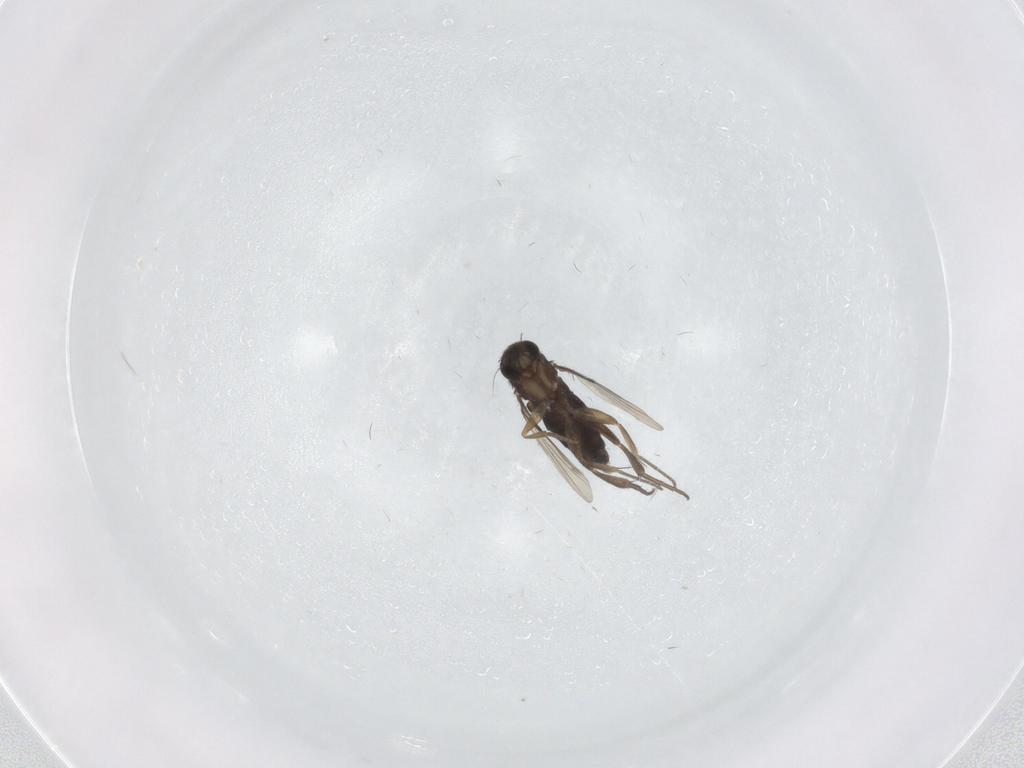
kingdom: Animalia
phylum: Arthropoda
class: Insecta
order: Diptera
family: Phoridae
